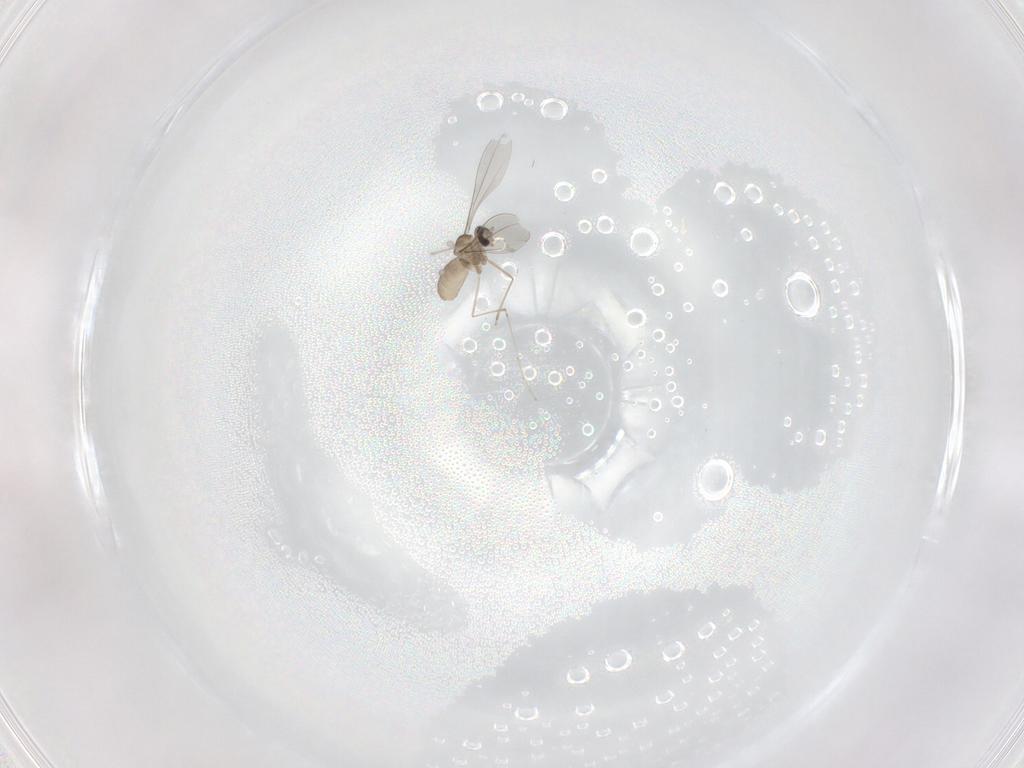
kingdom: Animalia
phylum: Arthropoda
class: Insecta
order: Diptera
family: Cecidomyiidae
